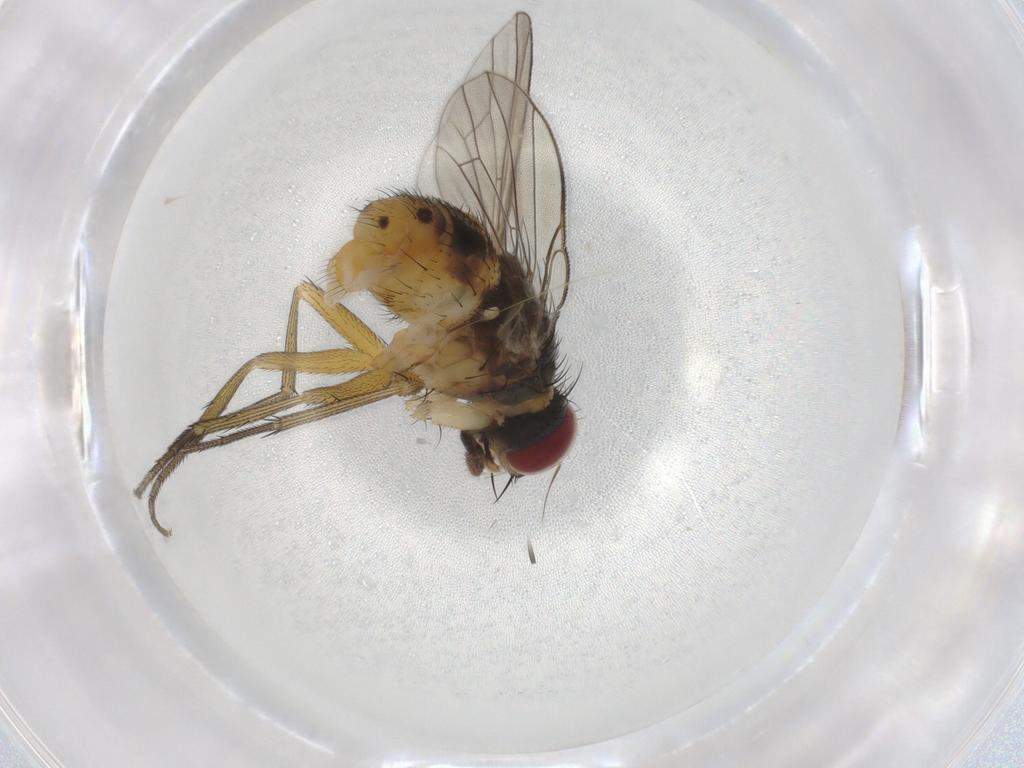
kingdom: Animalia
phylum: Arthropoda
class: Insecta
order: Diptera
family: Muscidae
